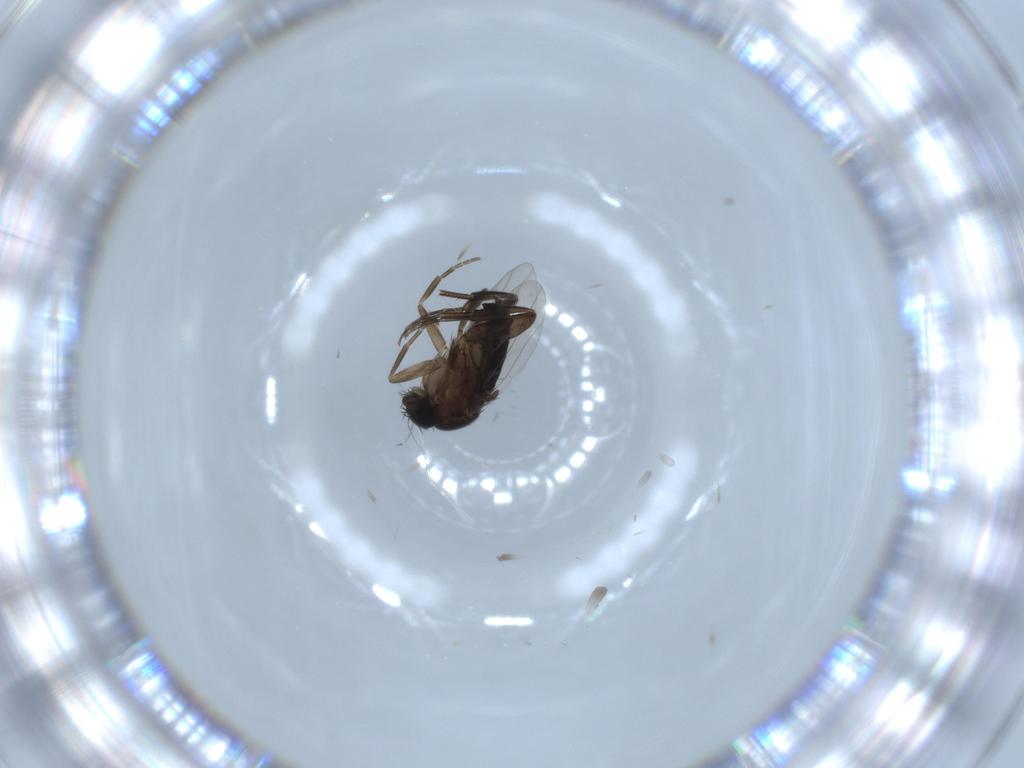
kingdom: Animalia
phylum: Arthropoda
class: Insecta
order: Diptera
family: Phoridae
